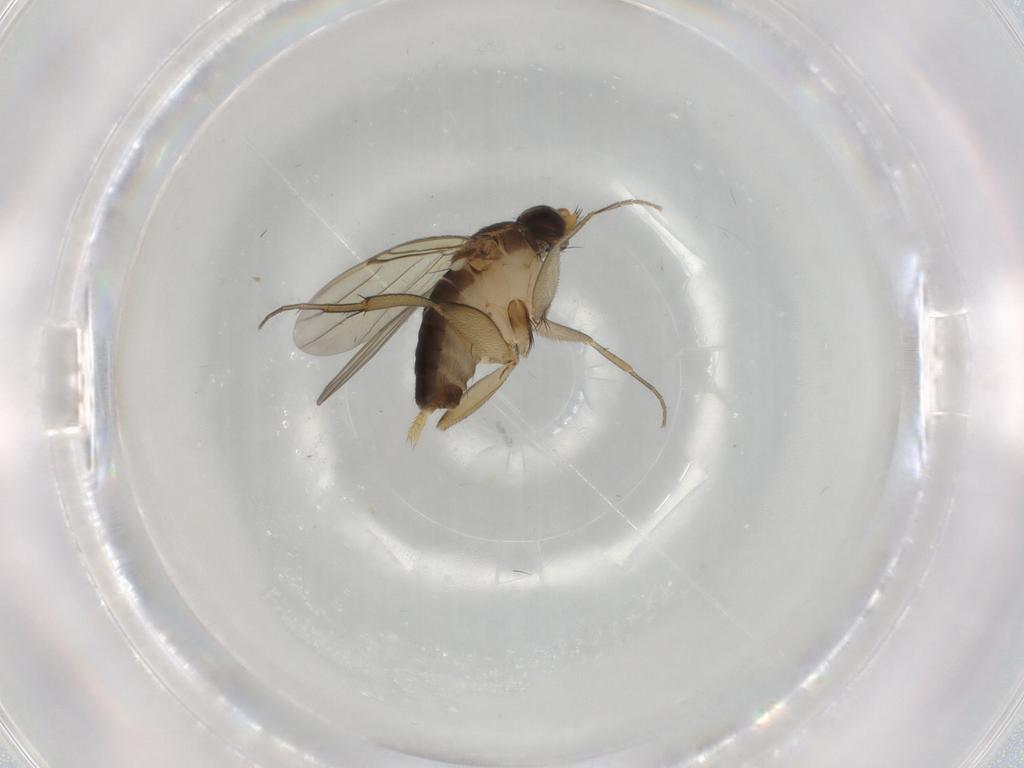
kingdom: Animalia
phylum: Arthropoda
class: Insecta
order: Diptera
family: Phoridae
